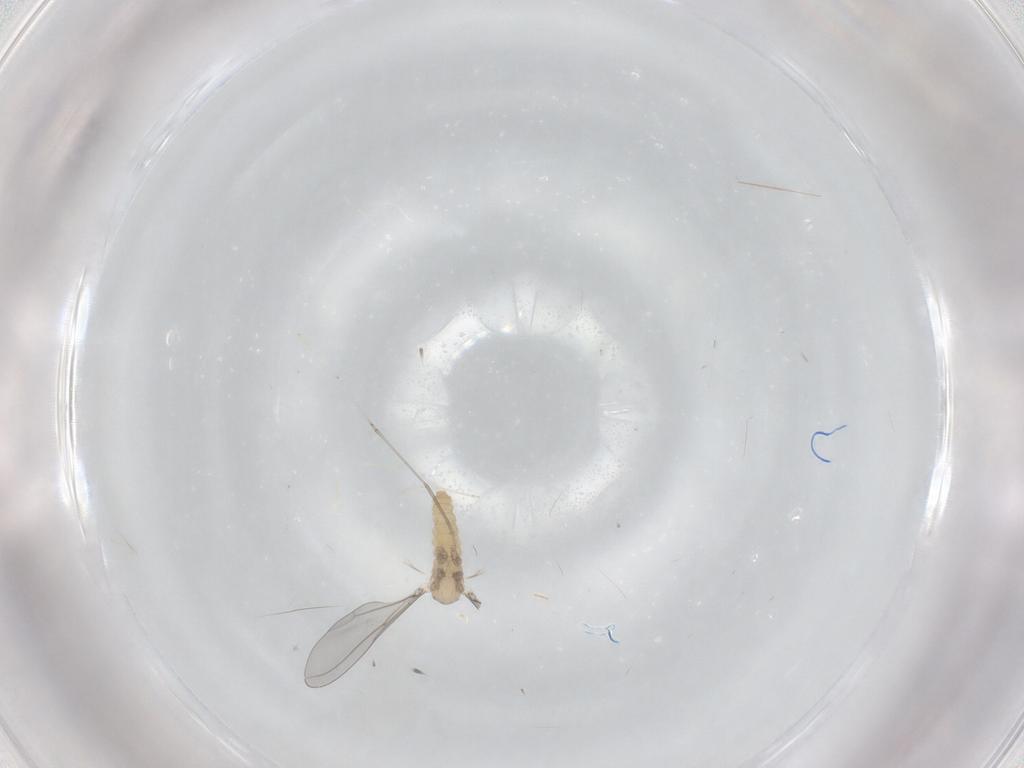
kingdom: Animalia
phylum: Arthropoda
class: Insecta
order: Diptera
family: Cecidomyiidae
